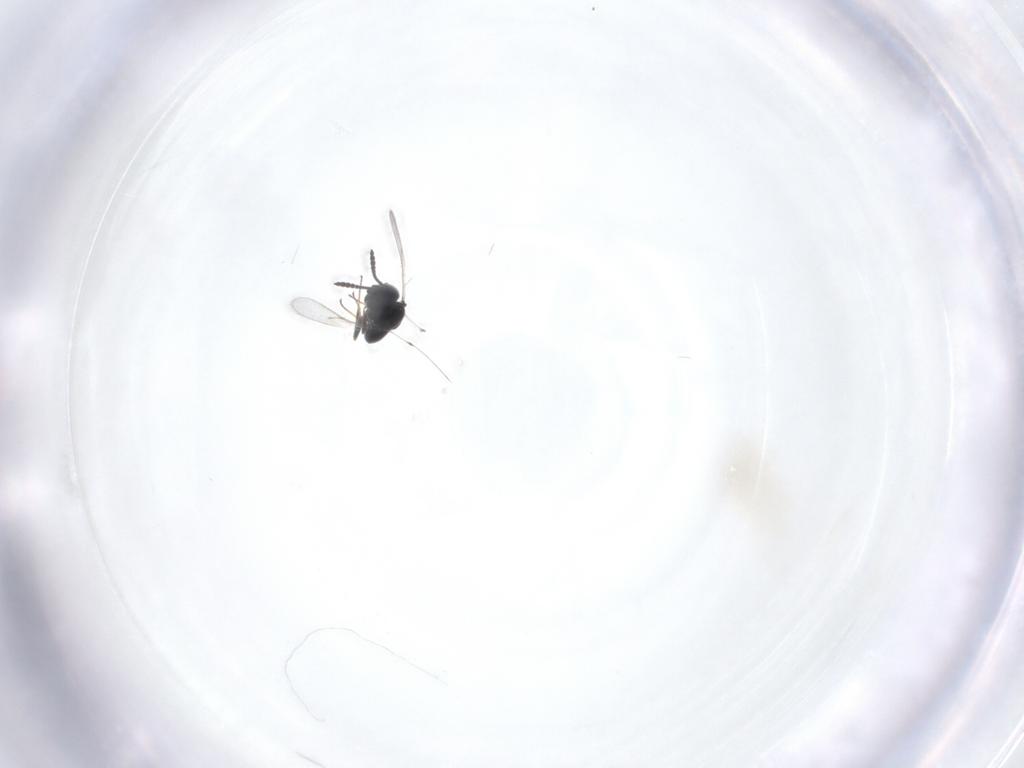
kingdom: Animalia
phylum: Arthropoda
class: Insecta
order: Hymenoptera
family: Scelionidae
